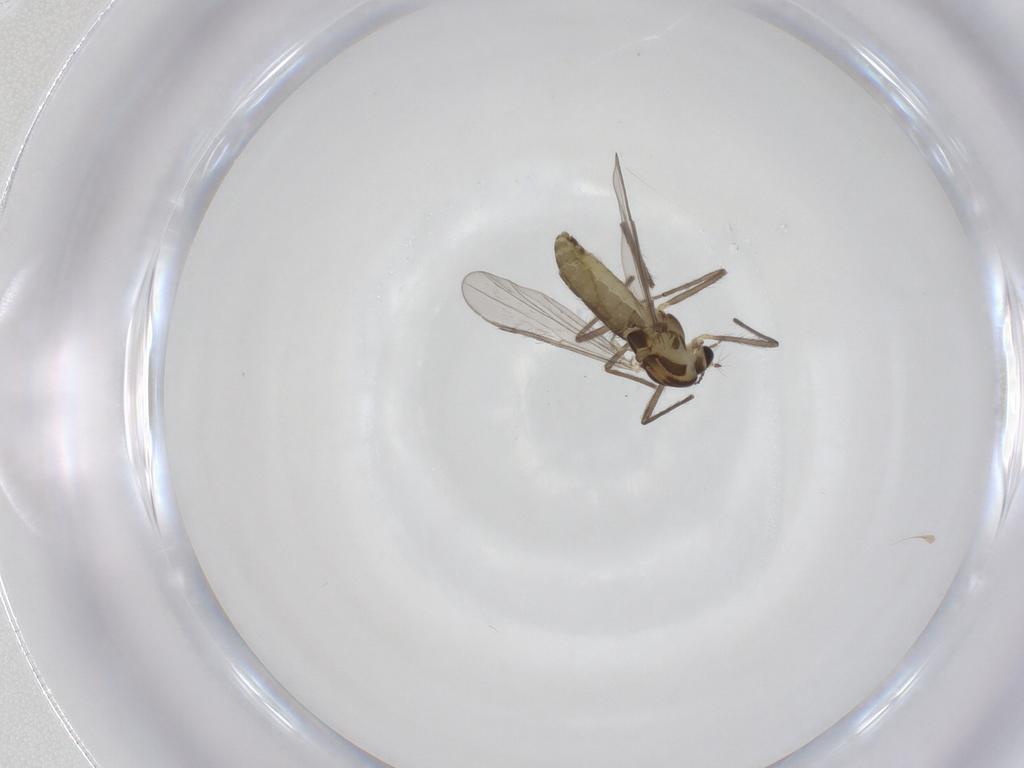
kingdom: Animalia
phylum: Arthropoda
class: Insecta
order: Diptera
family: Chironomidae
